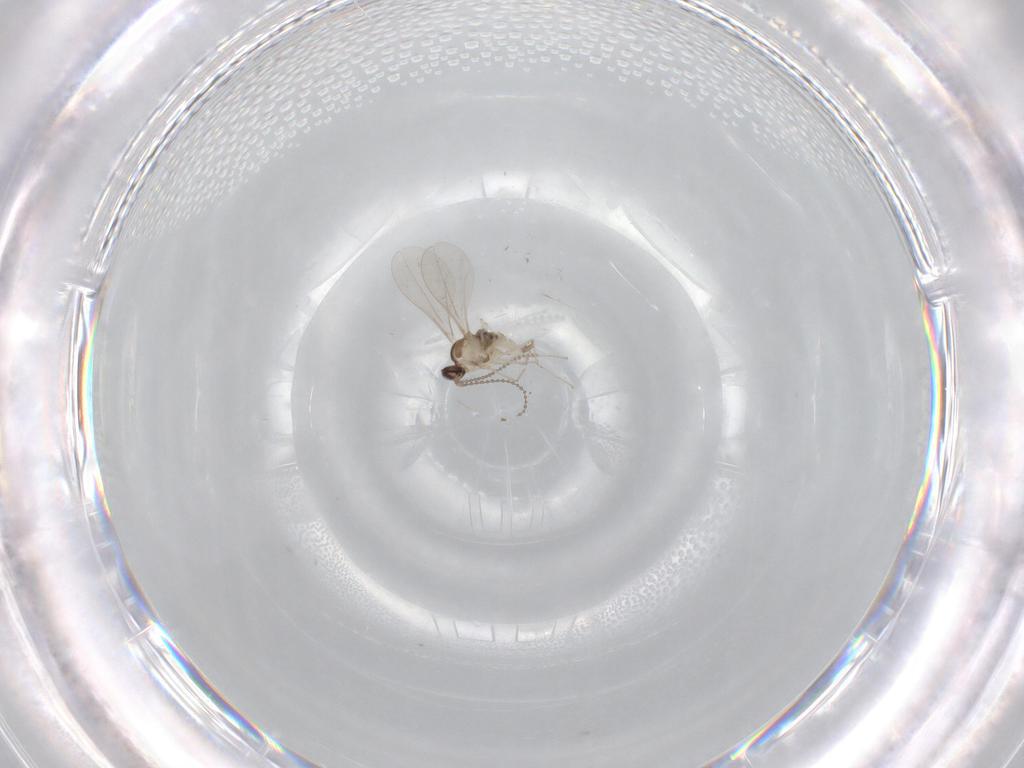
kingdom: Animalia
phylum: Arthropoda
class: Insecta
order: Diptera
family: Sciaridae
